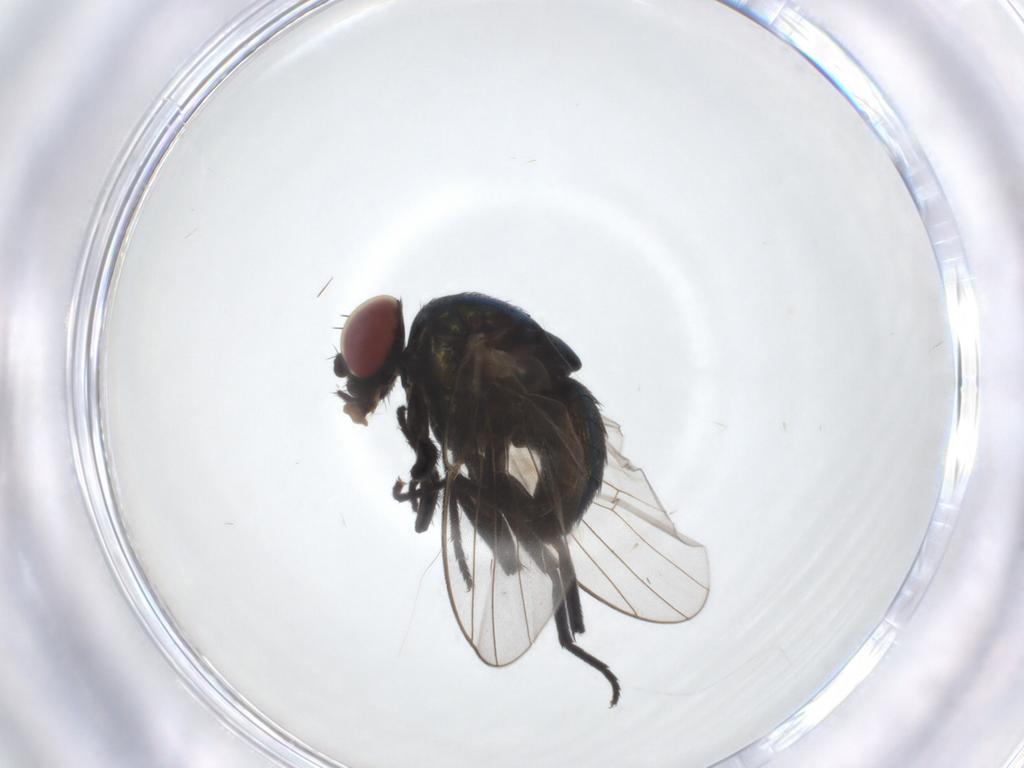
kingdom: Animalia
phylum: Arthropoda
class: Insecta
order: Diptera
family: Agromyzidae
